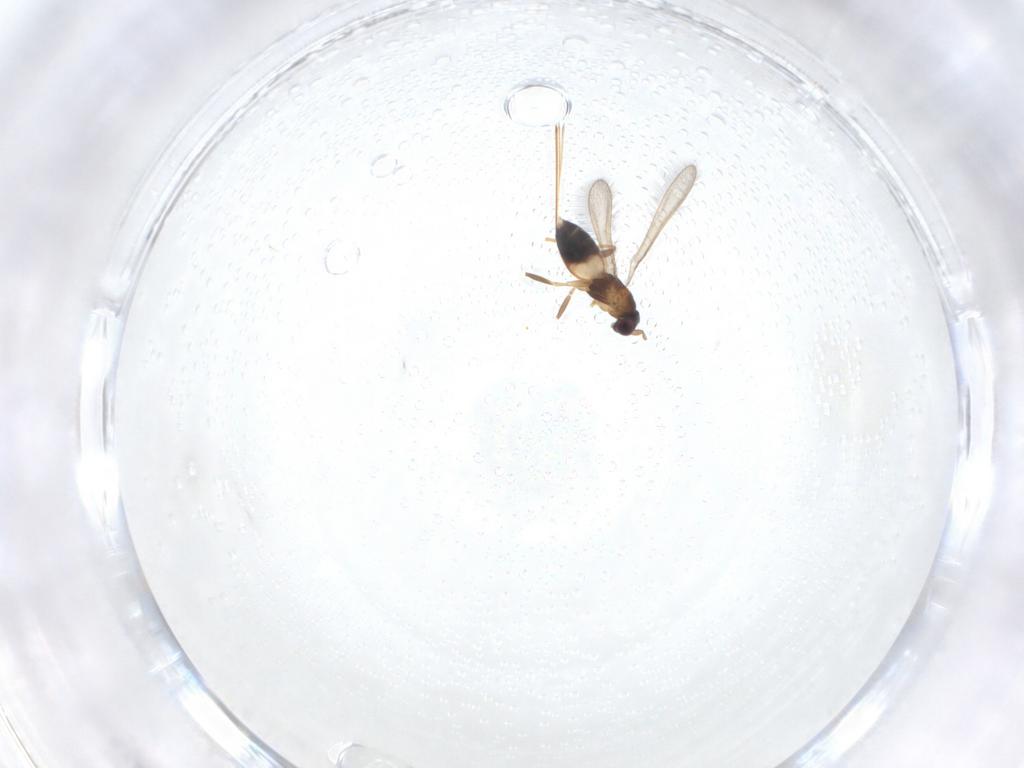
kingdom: Animalia
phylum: Arthropoda
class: Insecta
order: Hymenoptera
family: Mymaridae
